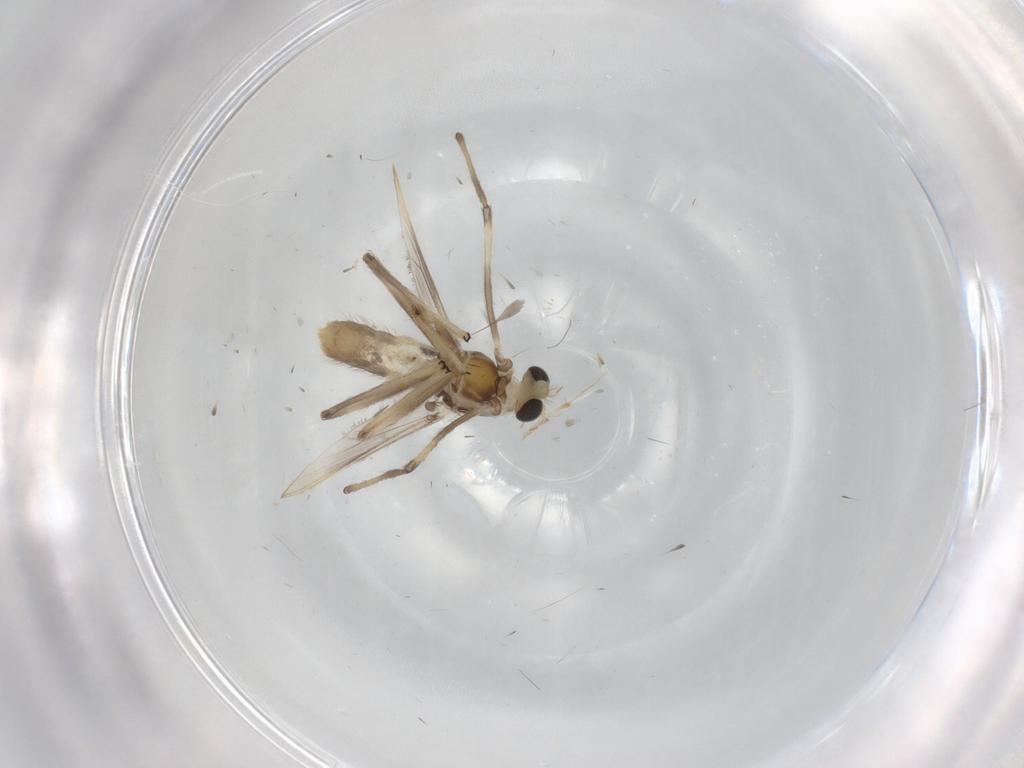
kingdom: Animalia
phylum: Arthropoda
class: Insecta
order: Diptera
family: Chironomidae
